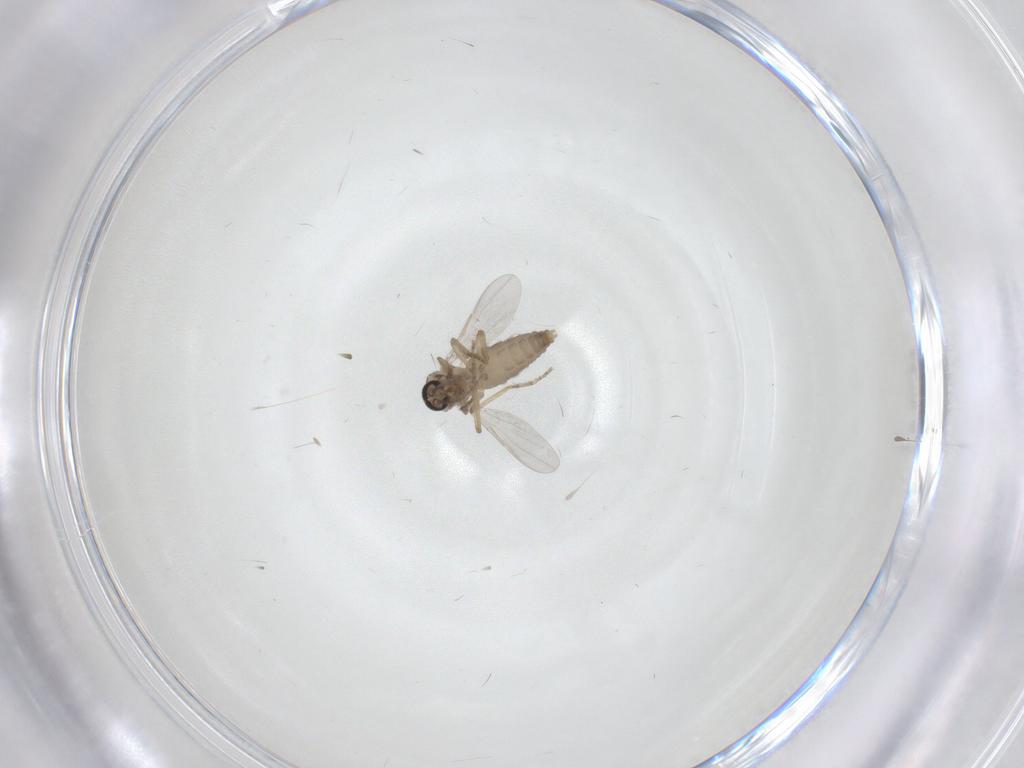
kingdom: Animalia
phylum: Arthropoda
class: Insecta
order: Diptera
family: Ceratopogonidae
